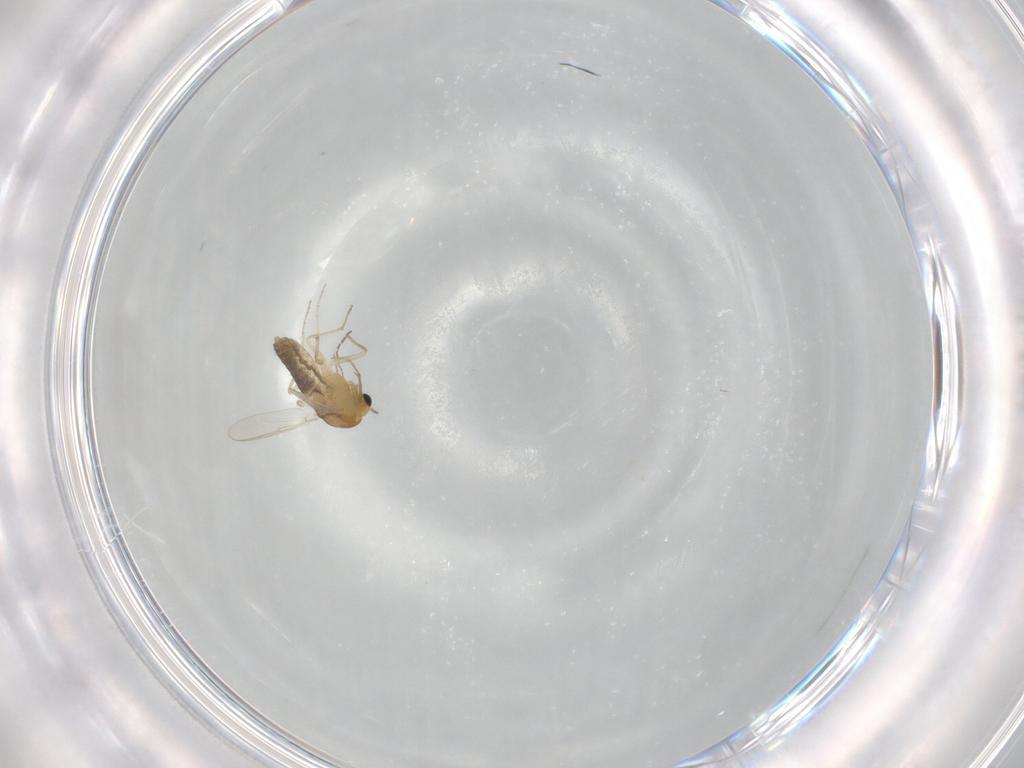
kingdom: Animalia
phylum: Arthropoda
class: Insecta
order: Diptera
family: Chironomidae
